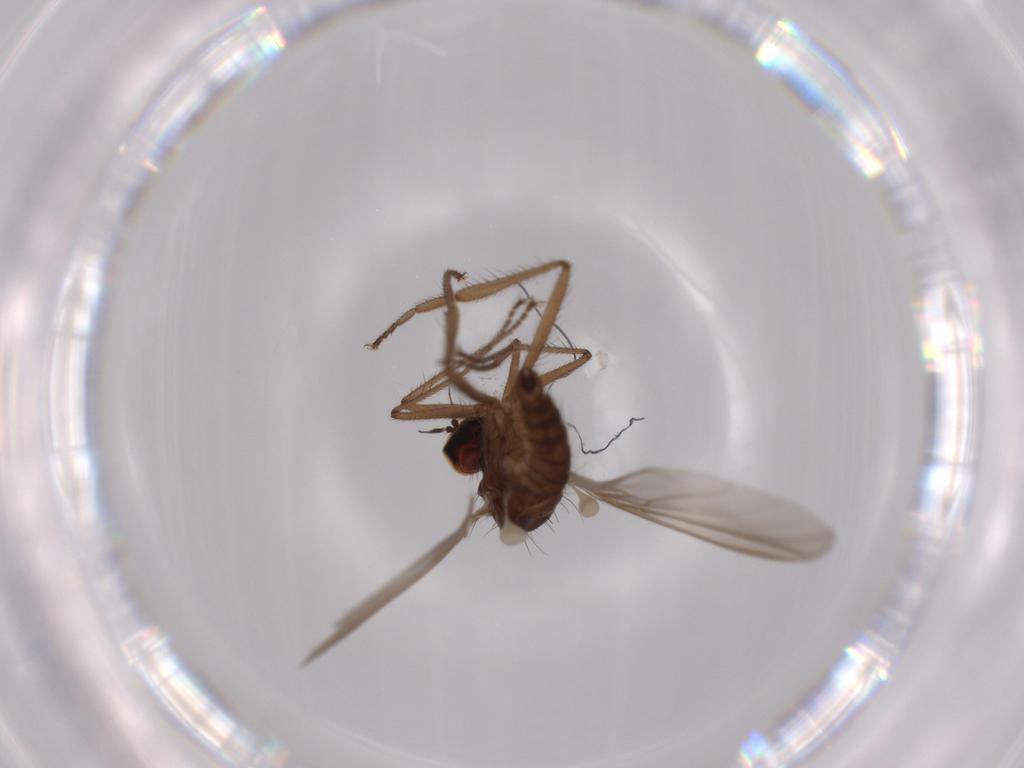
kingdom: Animalia
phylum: Arthropoda
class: Insecta
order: Diptera
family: Hybotidae
